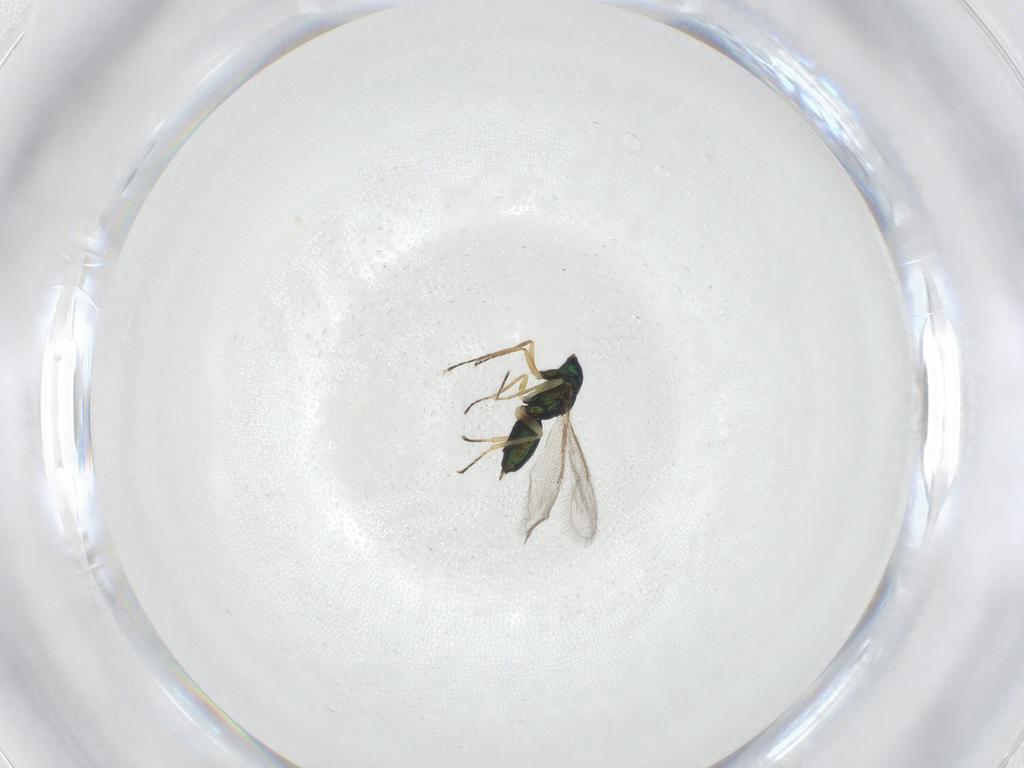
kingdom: Animalia
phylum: Arthropoda
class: Insecta
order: Hymenoptera
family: Eulophidae
